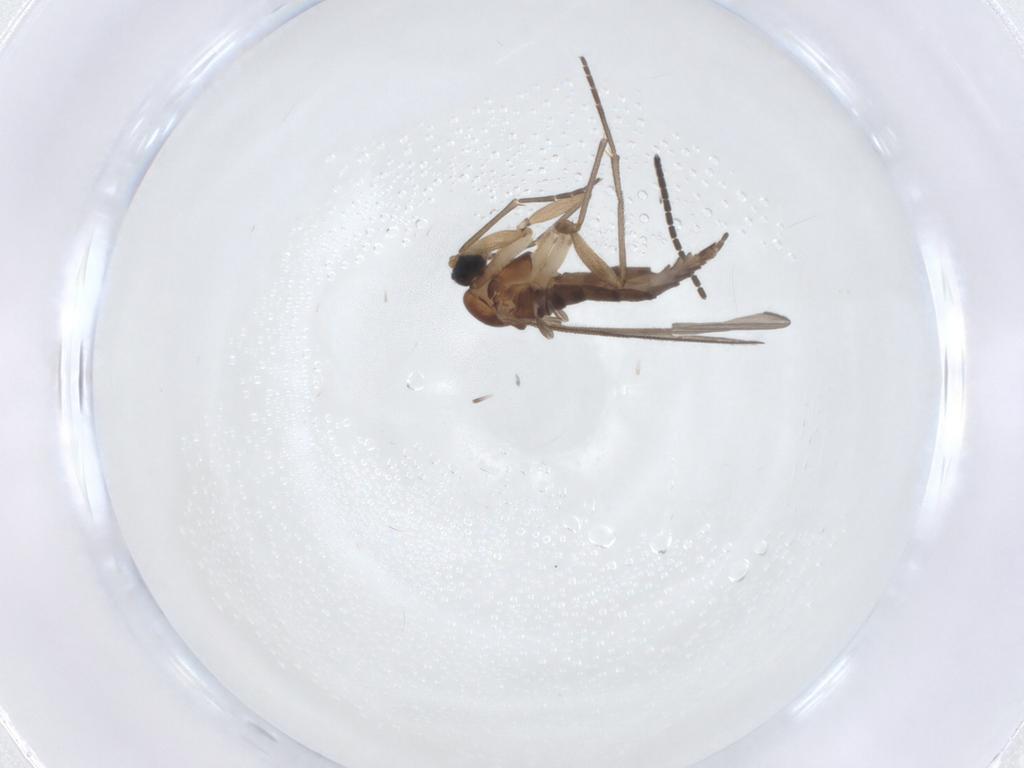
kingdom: Animalia
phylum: Arthropoda
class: Insecta
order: Diptera
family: Sciaridae
